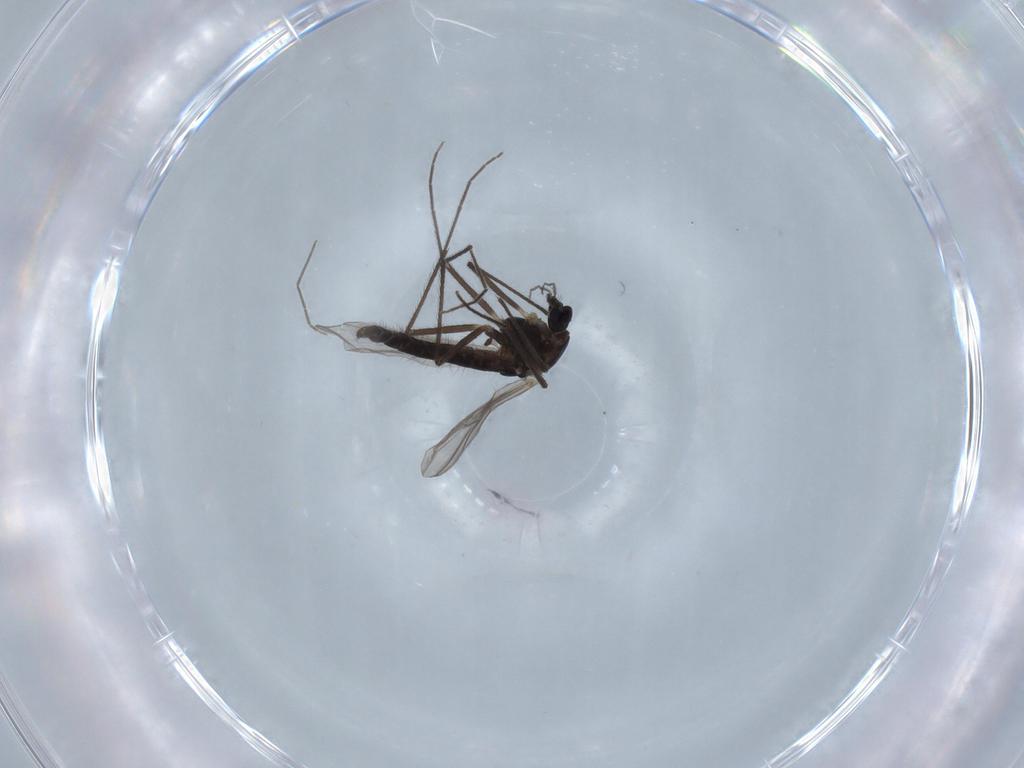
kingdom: Animalia
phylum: Arthropoda
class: Insecta
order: Diptera
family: Chironomidae
